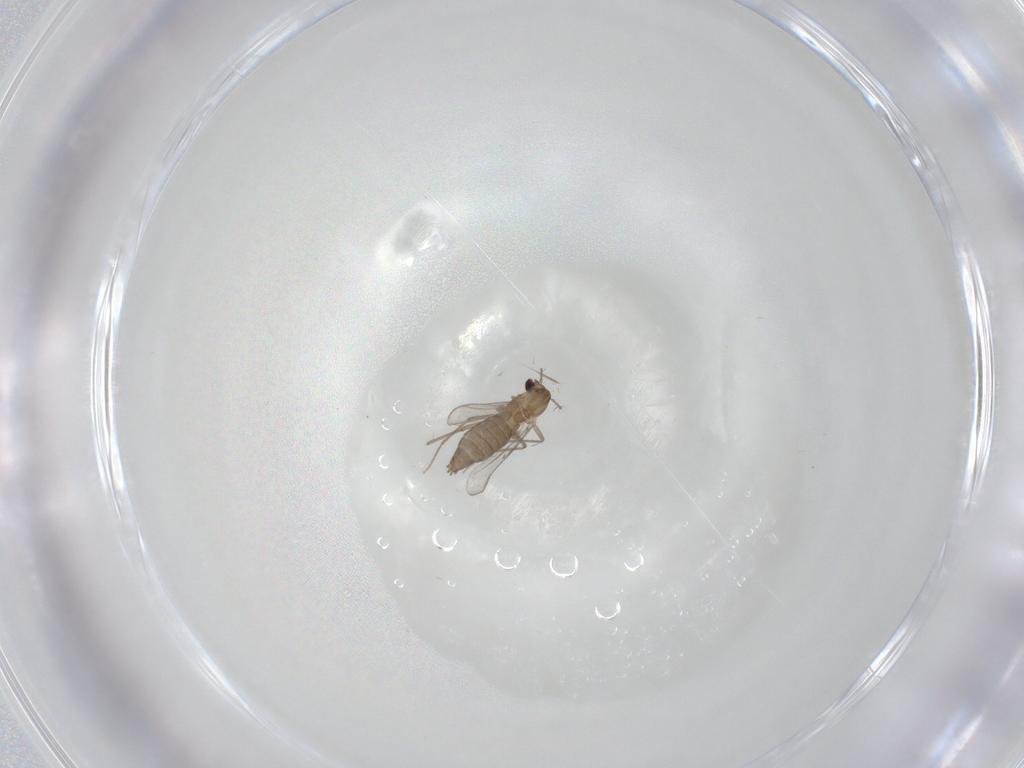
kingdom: Animalia
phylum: Arthropoda
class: Insecta
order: Diptera
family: Chironomidae
